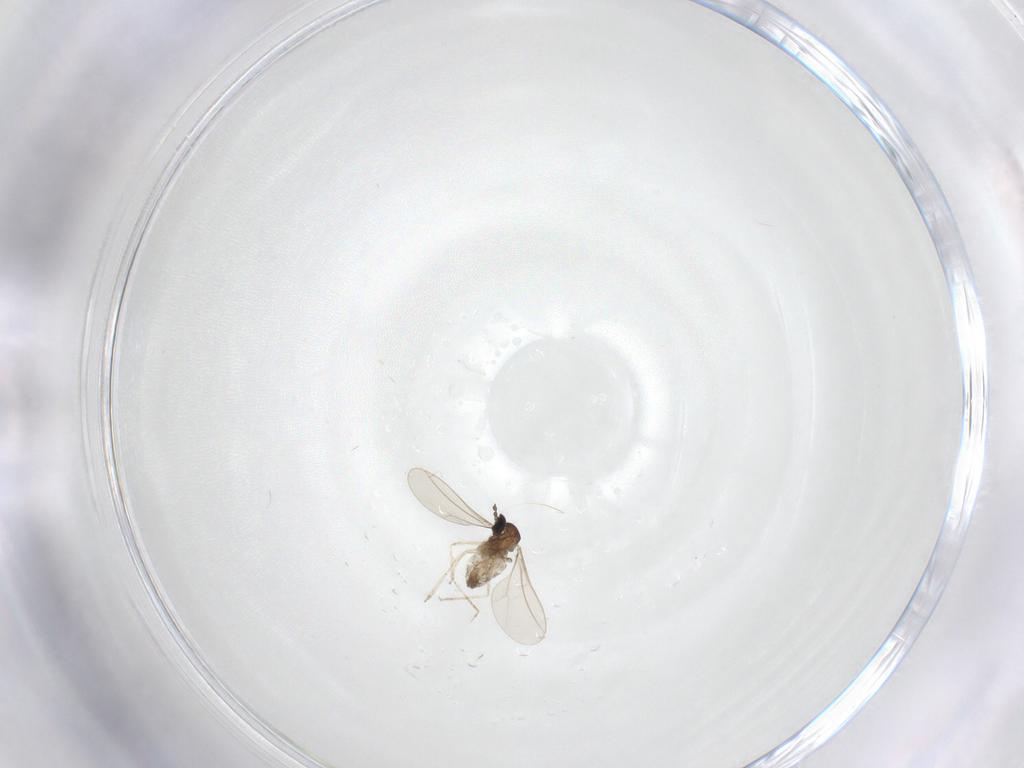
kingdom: Animalia
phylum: Arthropoda
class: Insecta
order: Diptera
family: Cecidomyiidae
